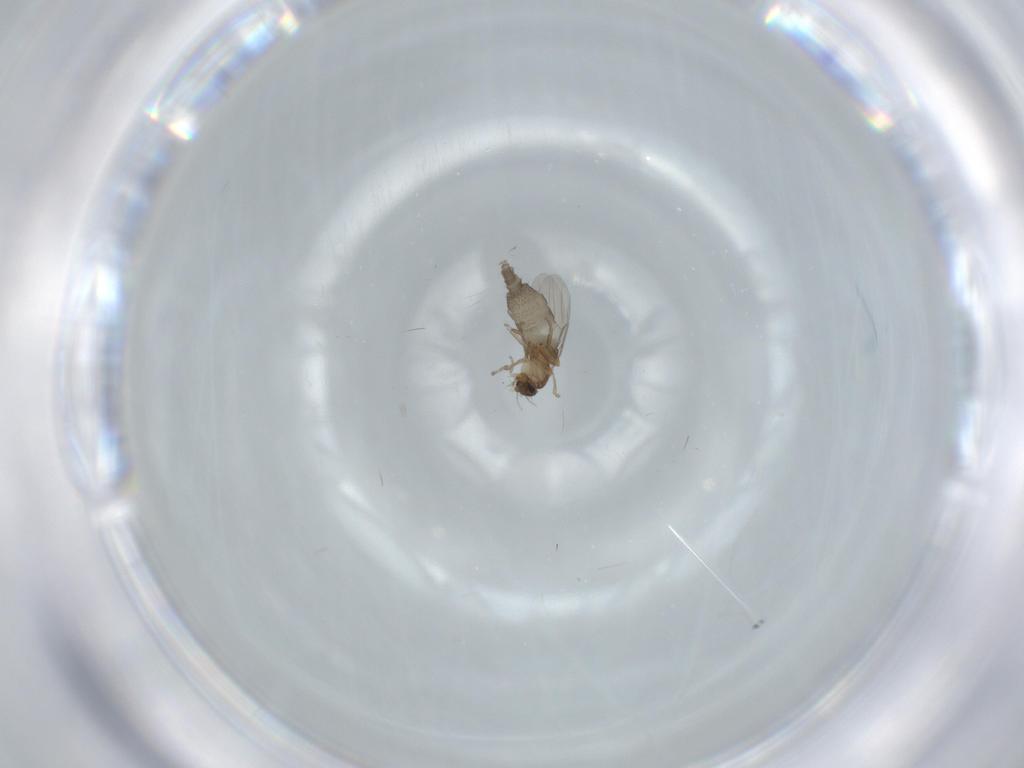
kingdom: Animalia
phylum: Arthropoda
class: Insecta
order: Diptera
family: Phoridae
